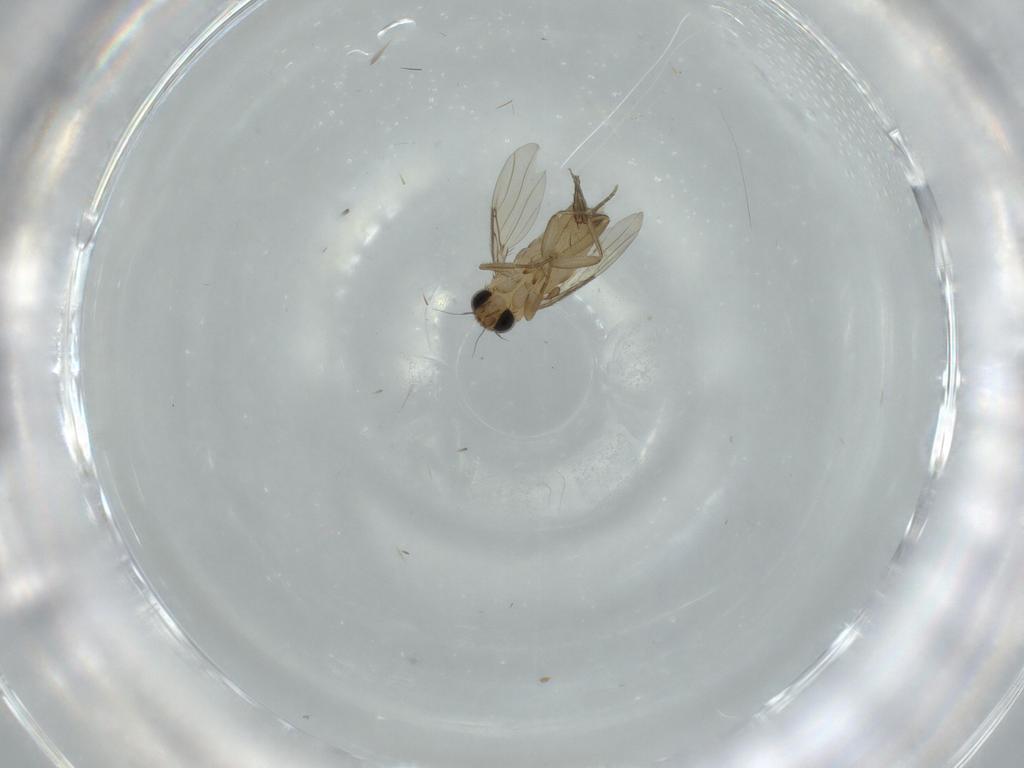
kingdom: Animalia
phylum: Arthropoda
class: Insecta
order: Diptera
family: Phoridae
